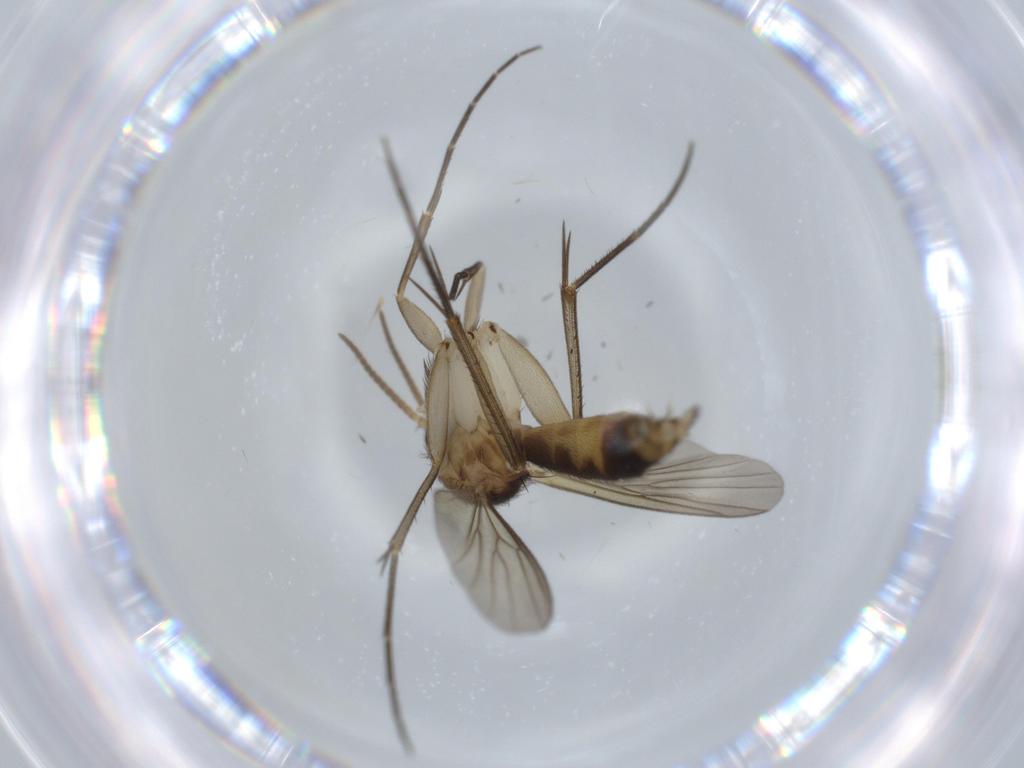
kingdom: Animalia
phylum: Arthropoda
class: Insecta
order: Diptera
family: Mycetophilidae
